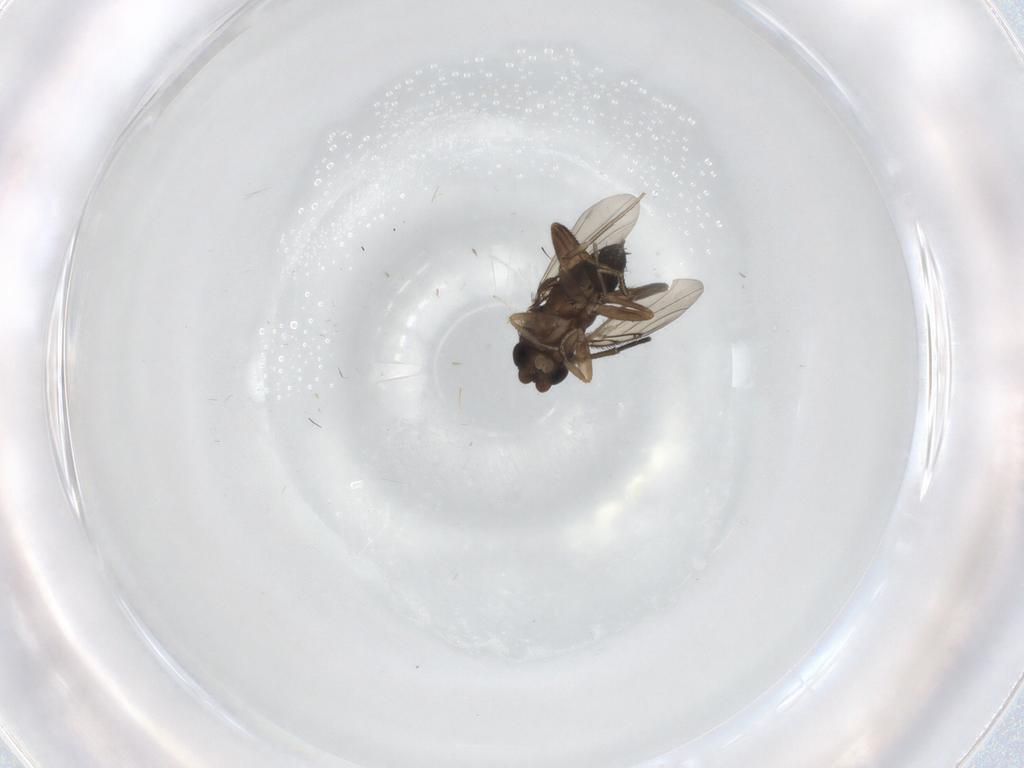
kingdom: Animalia
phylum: Arthropoda
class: Insecta
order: Diptera
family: Phoridae
